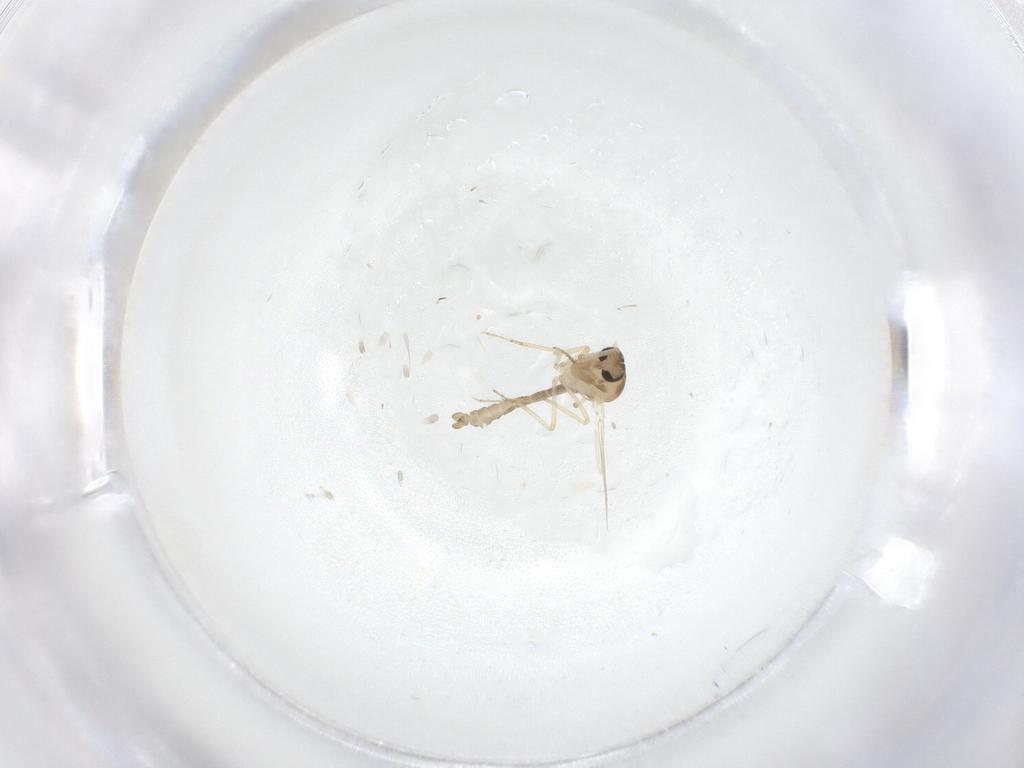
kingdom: Animalia
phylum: Arthropoda
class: Insecta
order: Diptera
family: Ceratopogonidae
